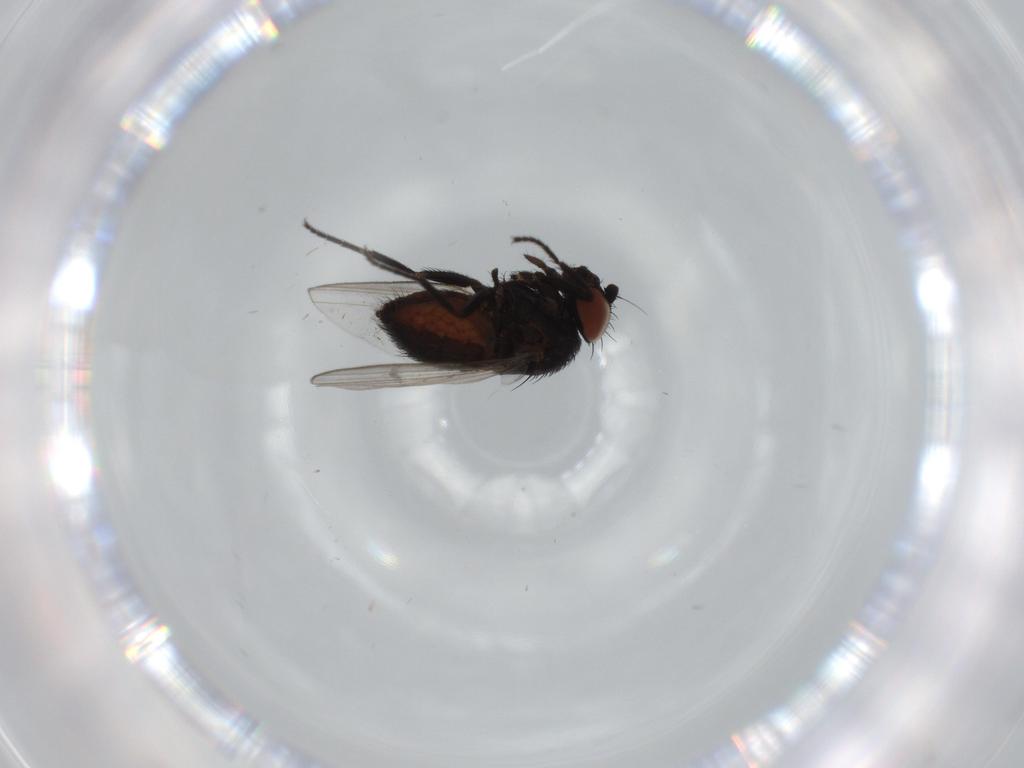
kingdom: Animalia
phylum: Arthropoda
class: Insecta
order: Diptera
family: Milichiidae
